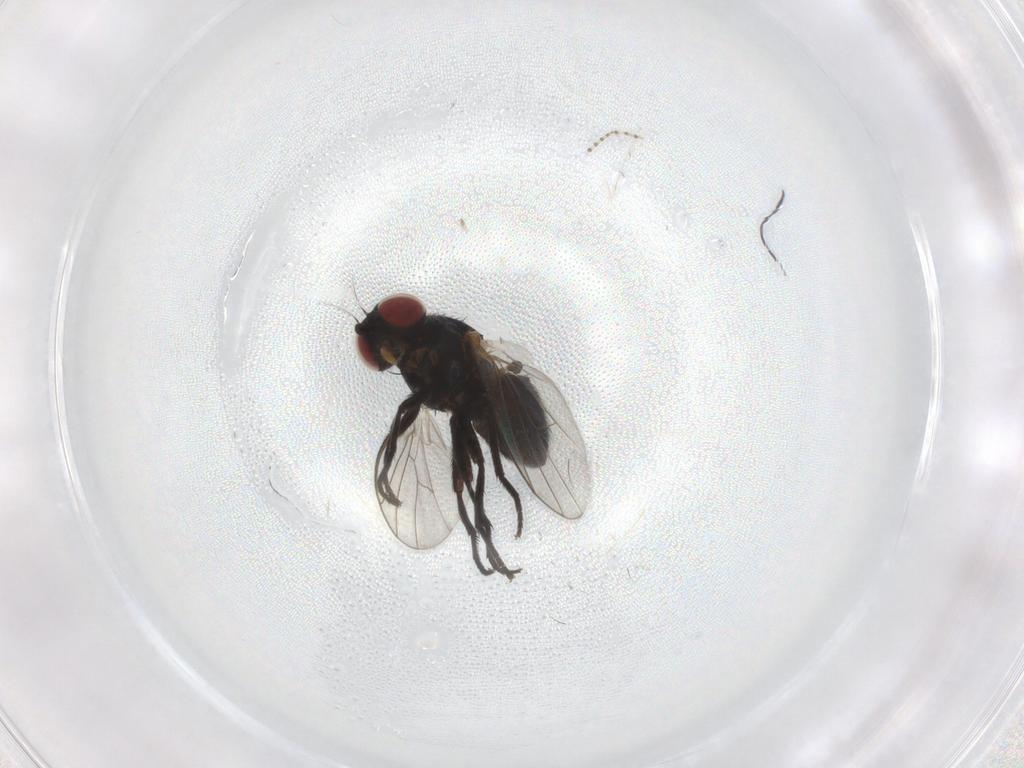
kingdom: Animalia
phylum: Arthropoda
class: Insecta
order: Diptera
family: Agromyzidae
